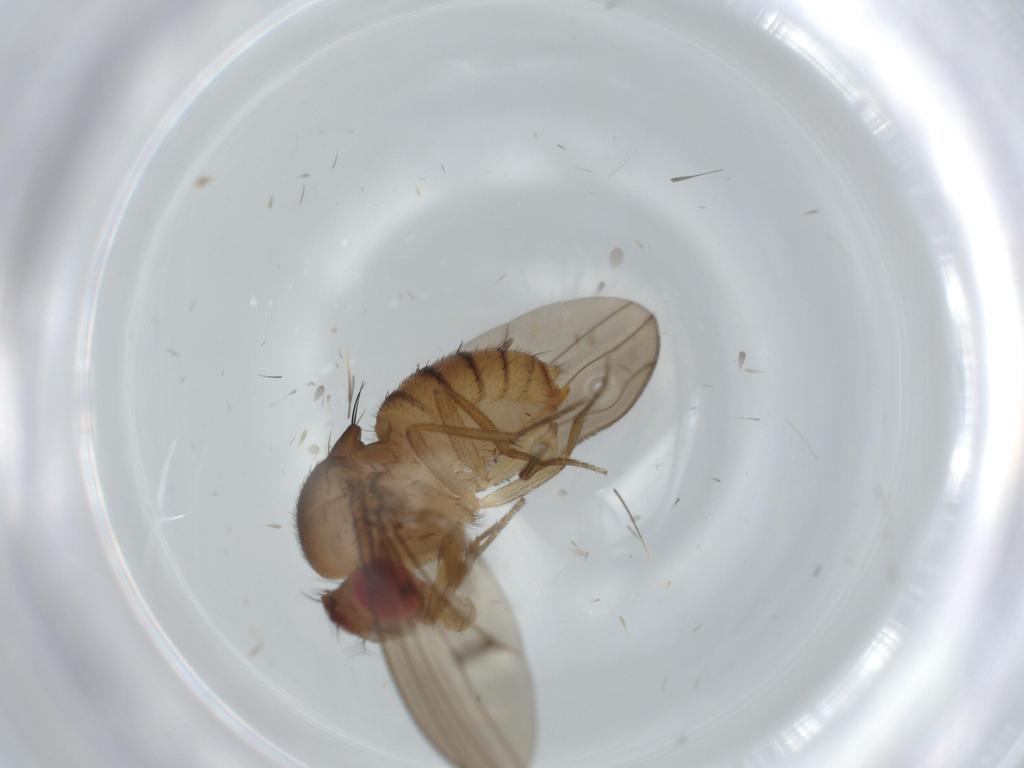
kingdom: Animalia
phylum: Arthropoda
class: Insecta
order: Diptera
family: Drosophilidae
